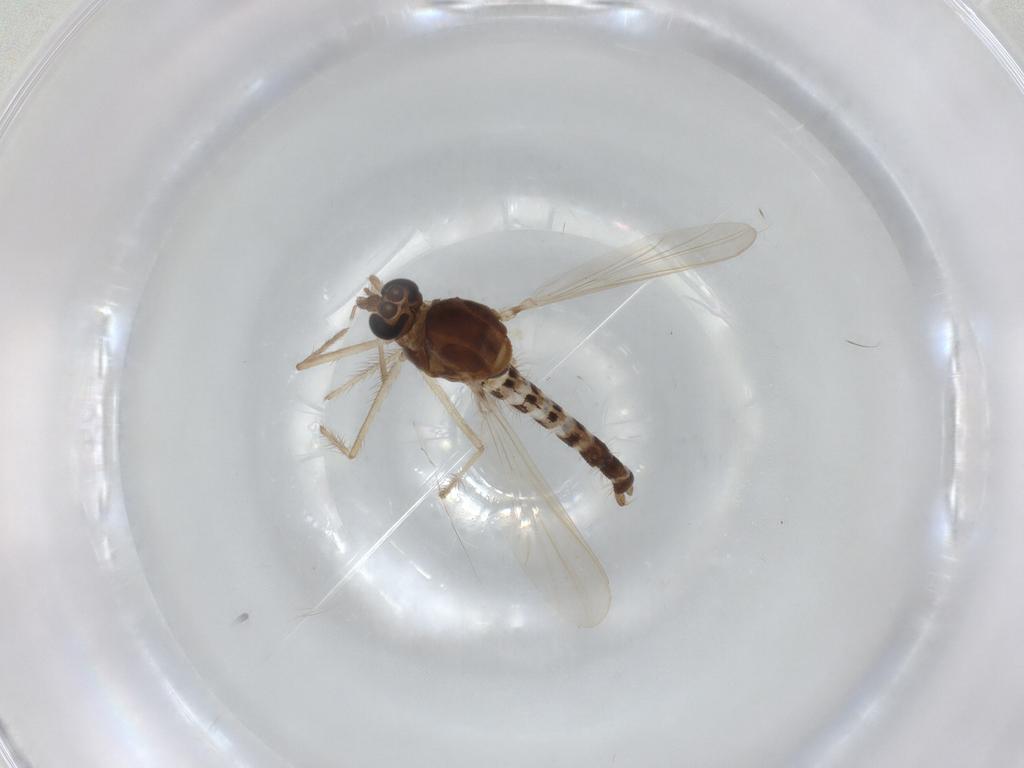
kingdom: Animalia
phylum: Arthropoda
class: Insecta
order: Diptera
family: Chironomidae
